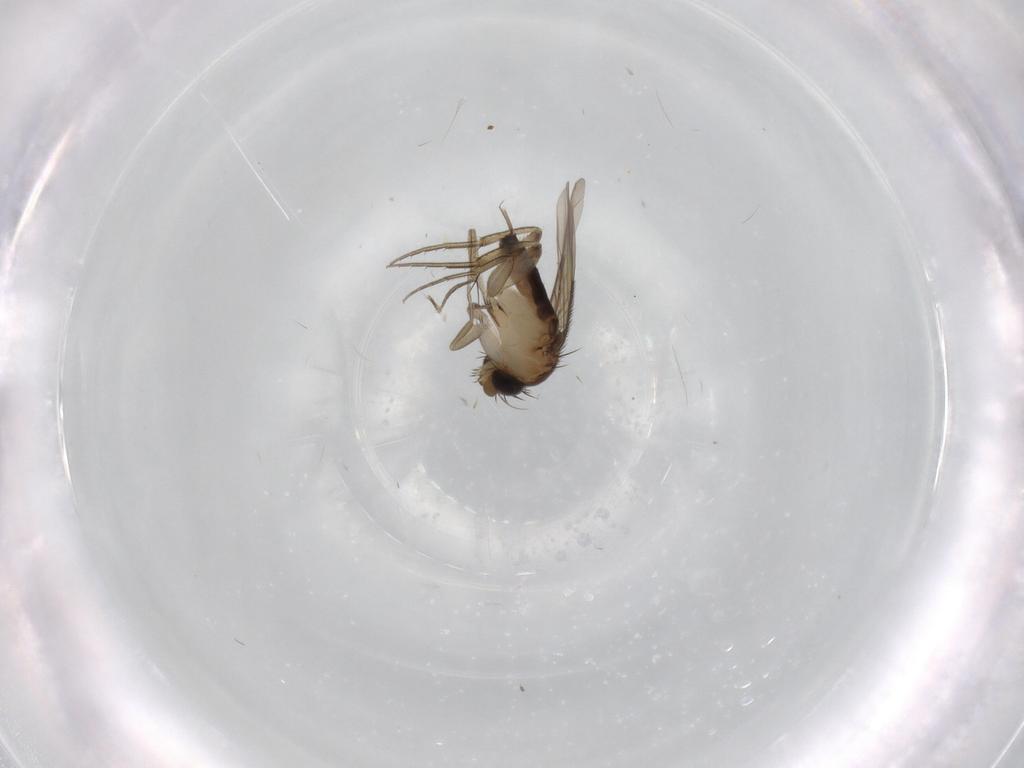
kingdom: Animalia
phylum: Arthropoda
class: Insecta
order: Diptera
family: Phoridae
